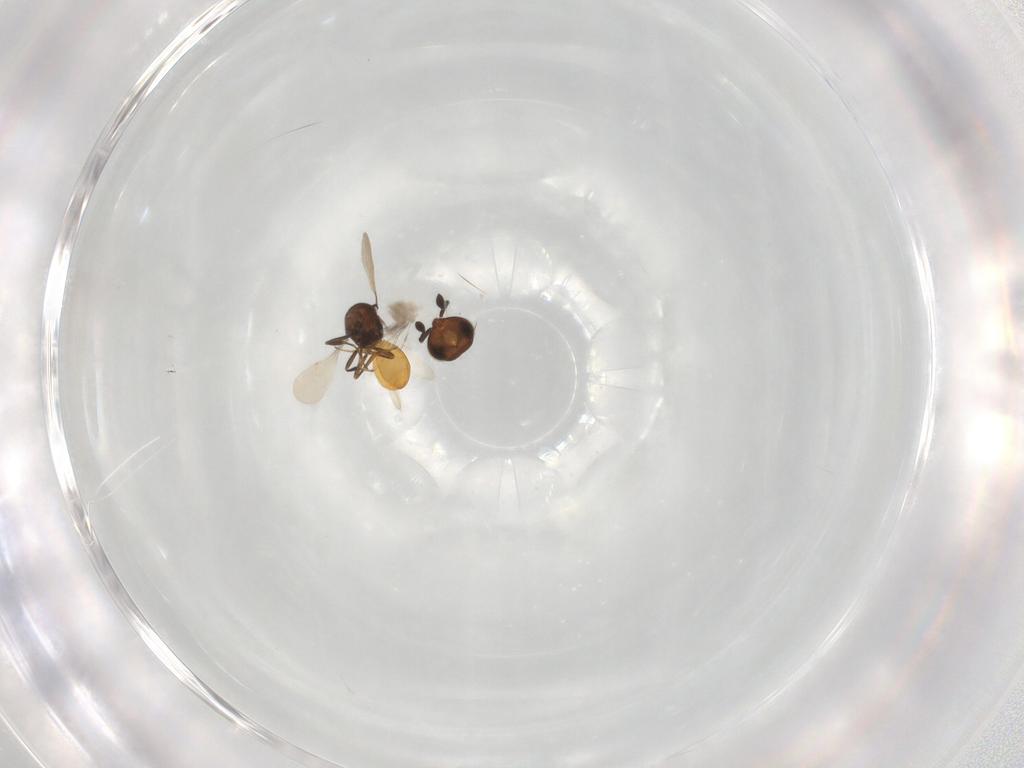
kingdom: Animalia
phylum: Arthropoda
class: Insecta
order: Hymenoptera
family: Scelionidae
